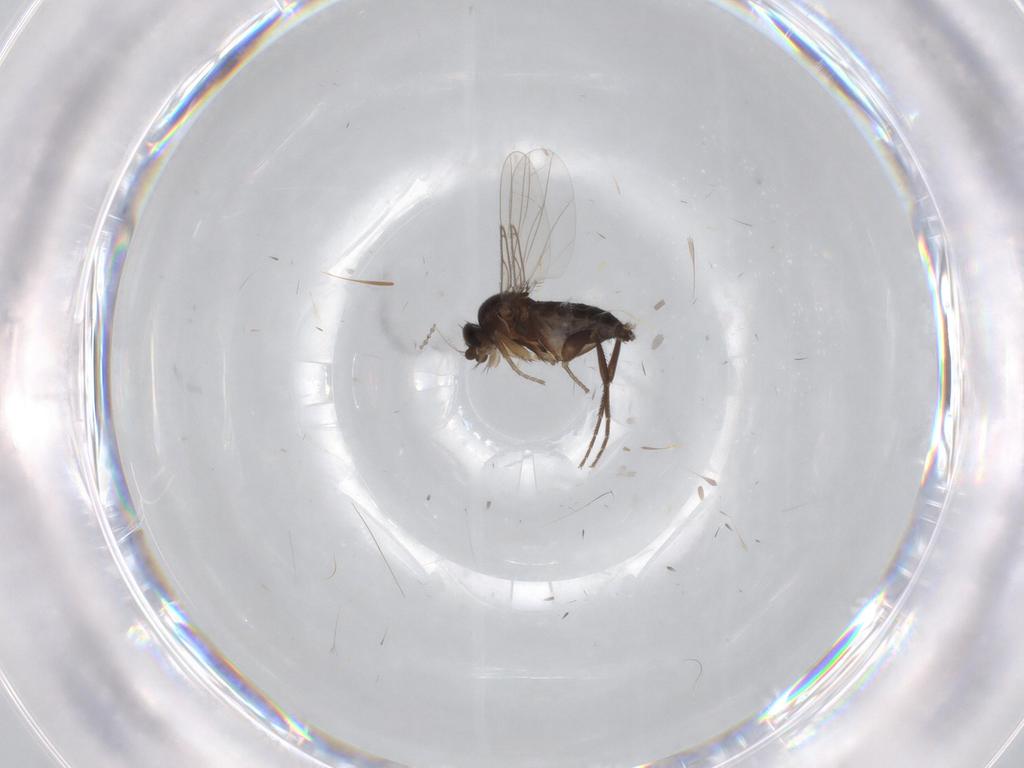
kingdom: Animalia
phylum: Arthropoda
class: Insecta
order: Diptera
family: Phoridae
